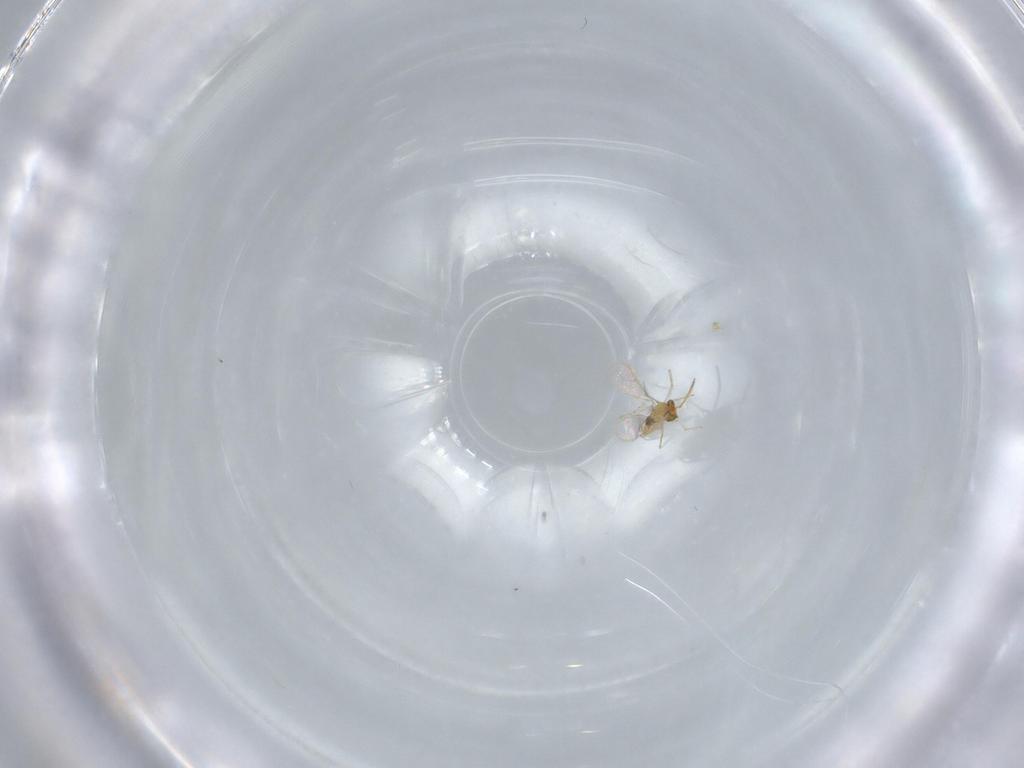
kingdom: Animalia
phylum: Arthropoda
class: Insecta
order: Hymenoptera
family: Aphelinidae
